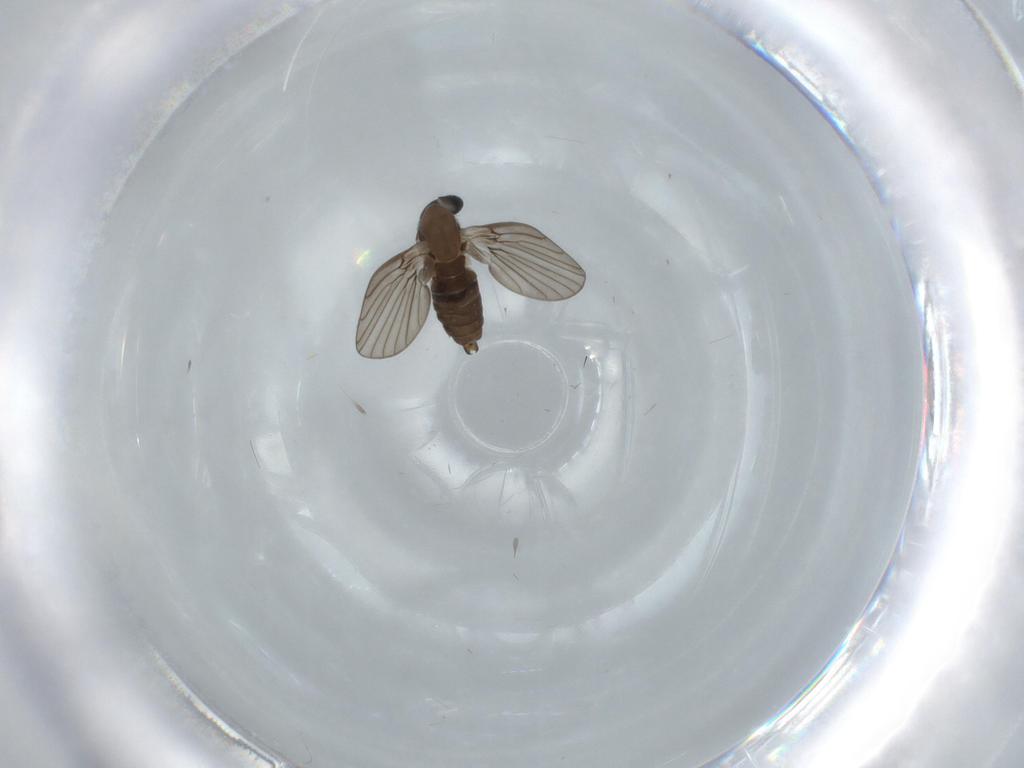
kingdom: Animalia
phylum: Arthropoda
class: Insecta
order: Diptera
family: Psychodidae
